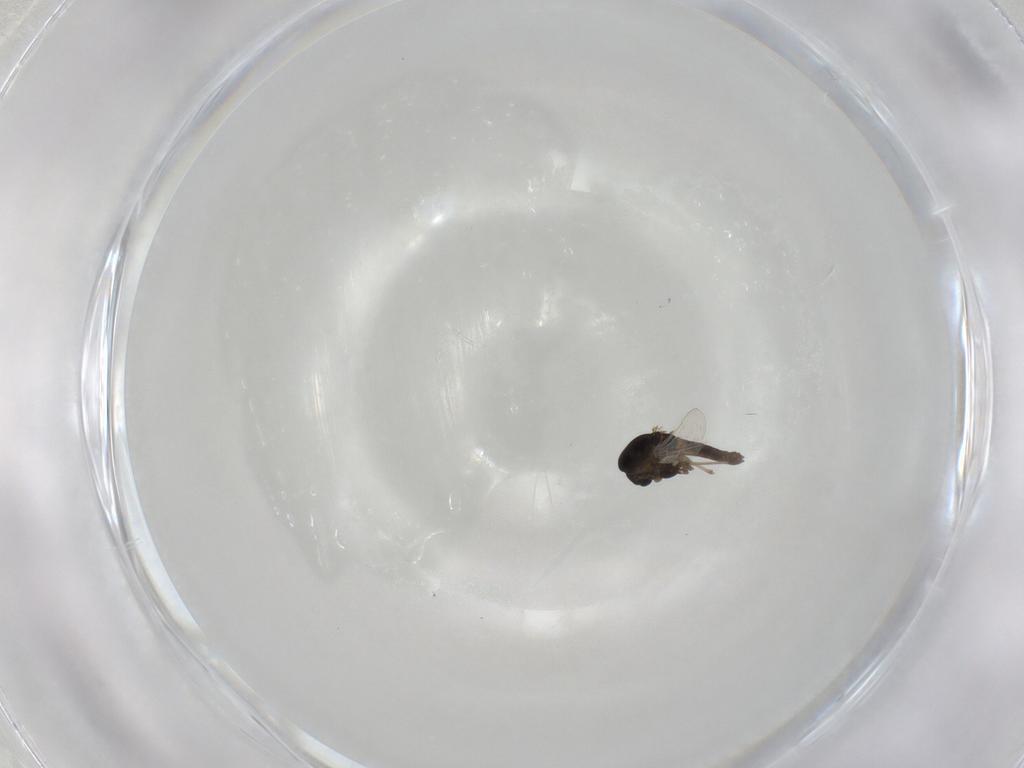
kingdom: Animalia
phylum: Arthropoda
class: Insecta
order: Diptera
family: Chironomidae
